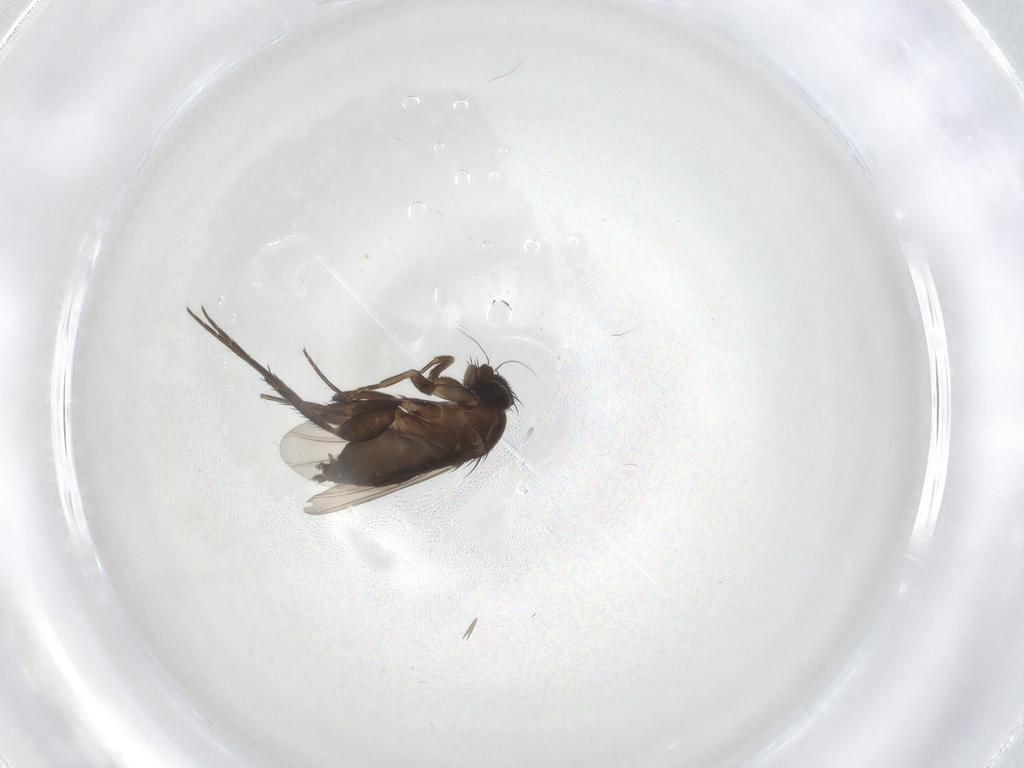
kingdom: Animalia
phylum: Arthropoda
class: Insecta
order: Diptera
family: Phoridae
